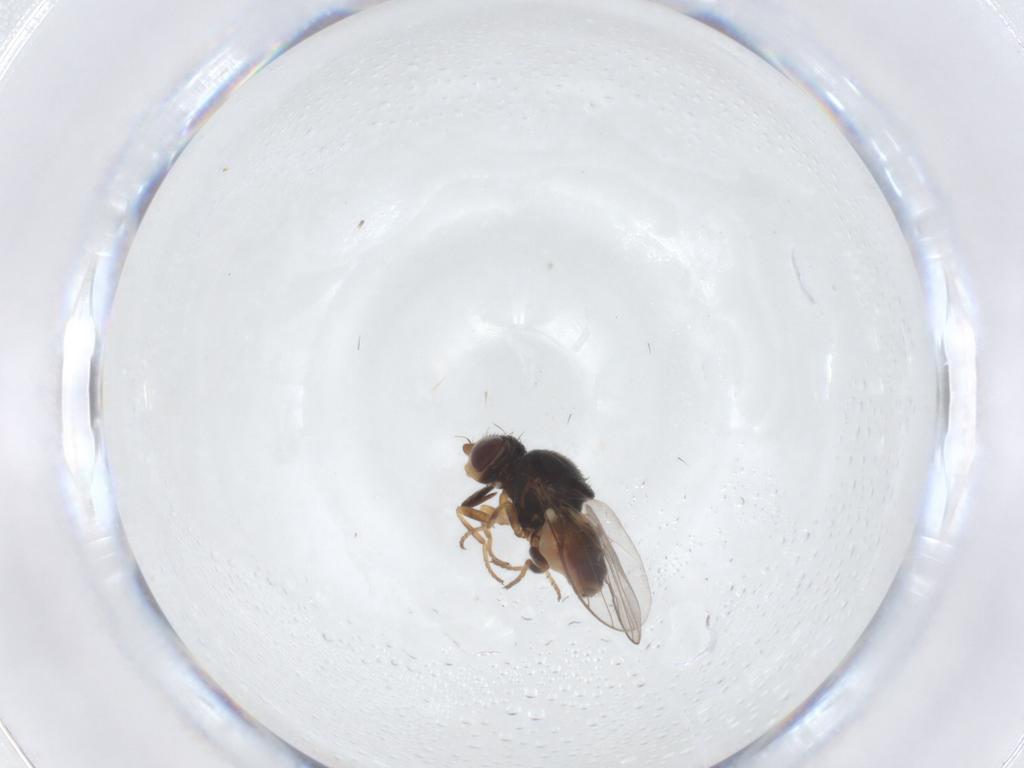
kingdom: Animalia
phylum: Arthropoda
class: Insecta
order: Diptera
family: Chloropidae
